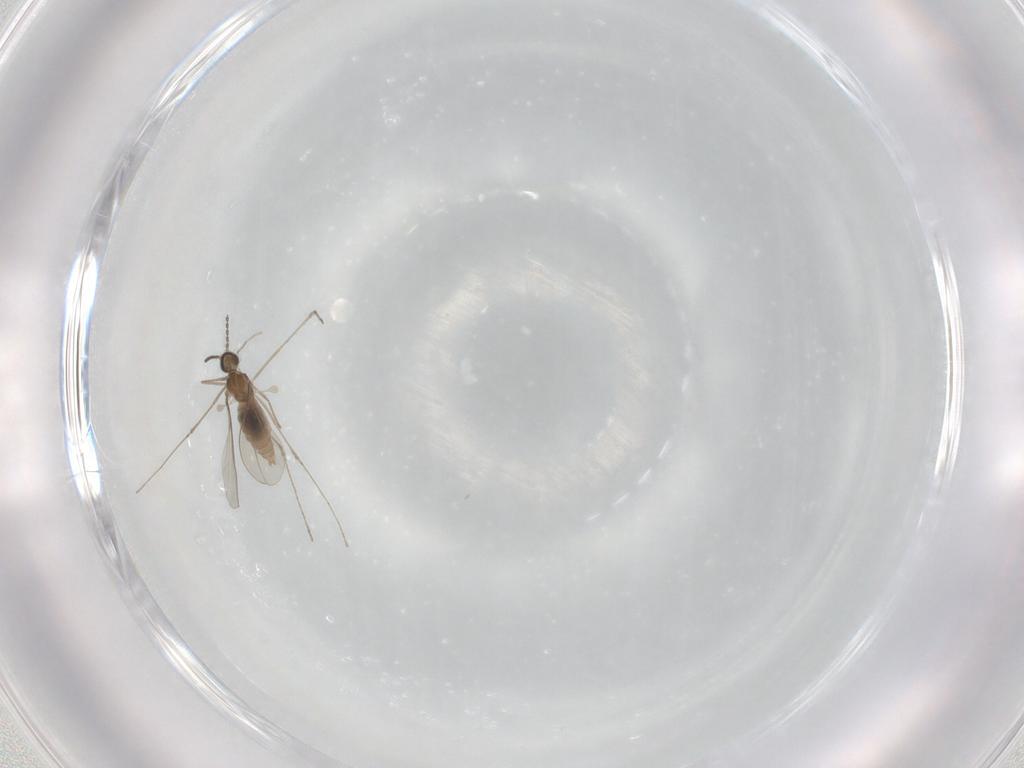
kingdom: Animalia
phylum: Arthropoda
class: Insecta
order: Diptera
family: Cecidomyiidae
